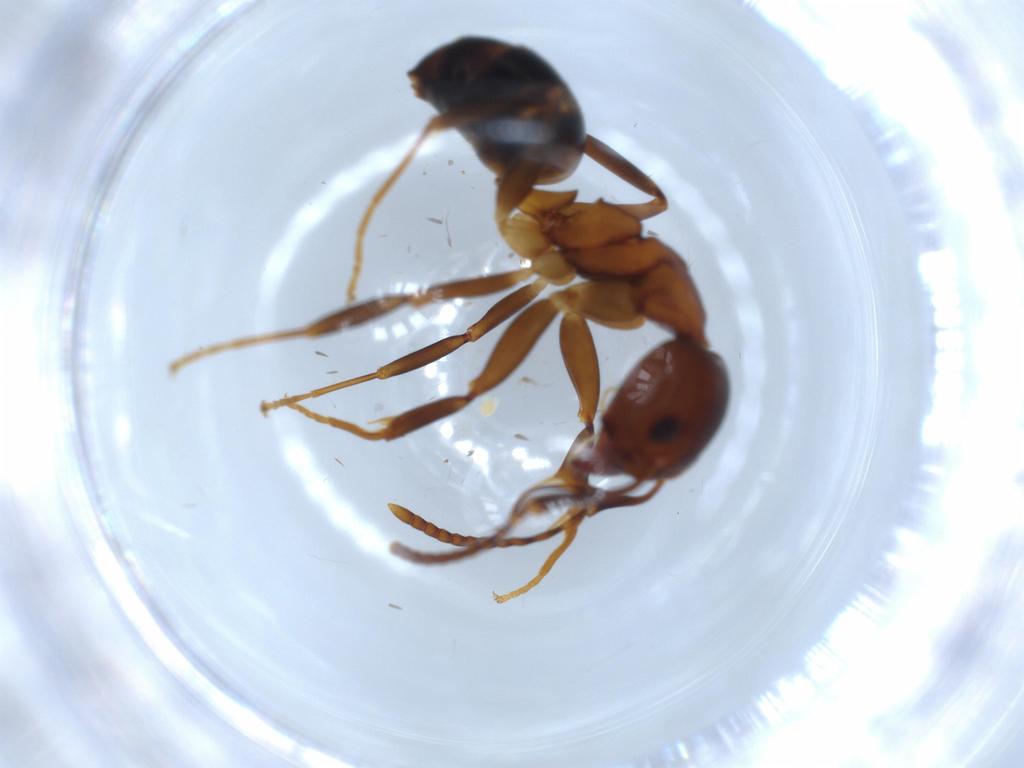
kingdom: Animalia
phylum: Arthropoda
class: Insecta
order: Hymenoptera
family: Formicidae
